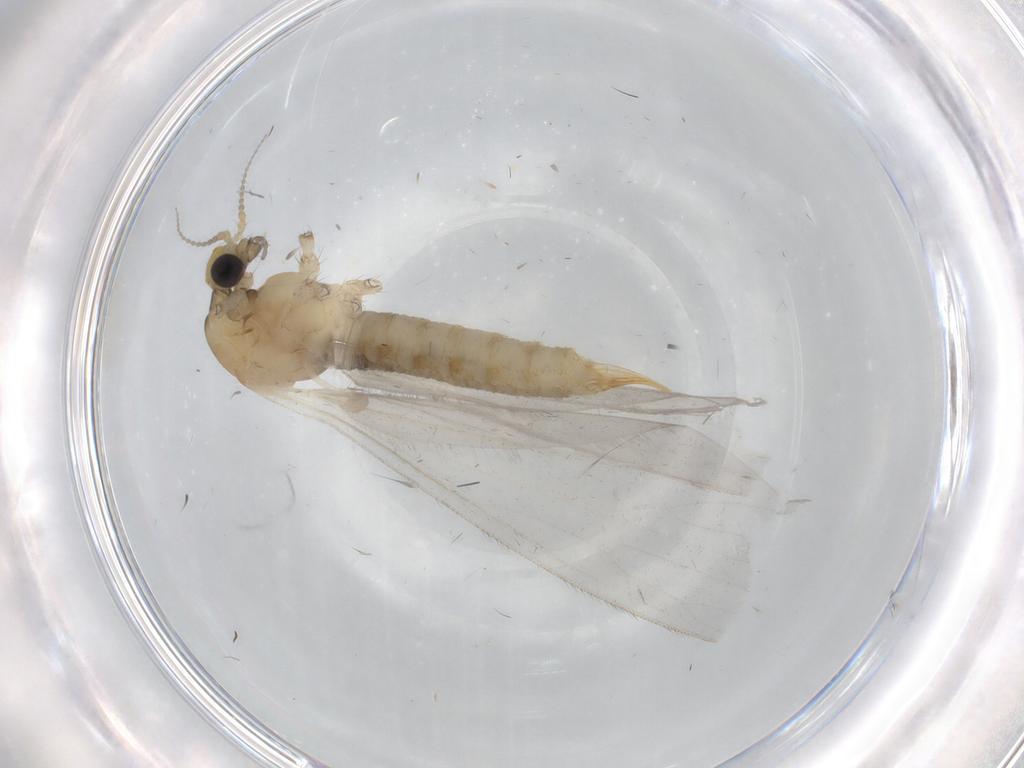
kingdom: Animalia
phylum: Arthropoda
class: Insecta
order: Diptera
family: Limoniidae
